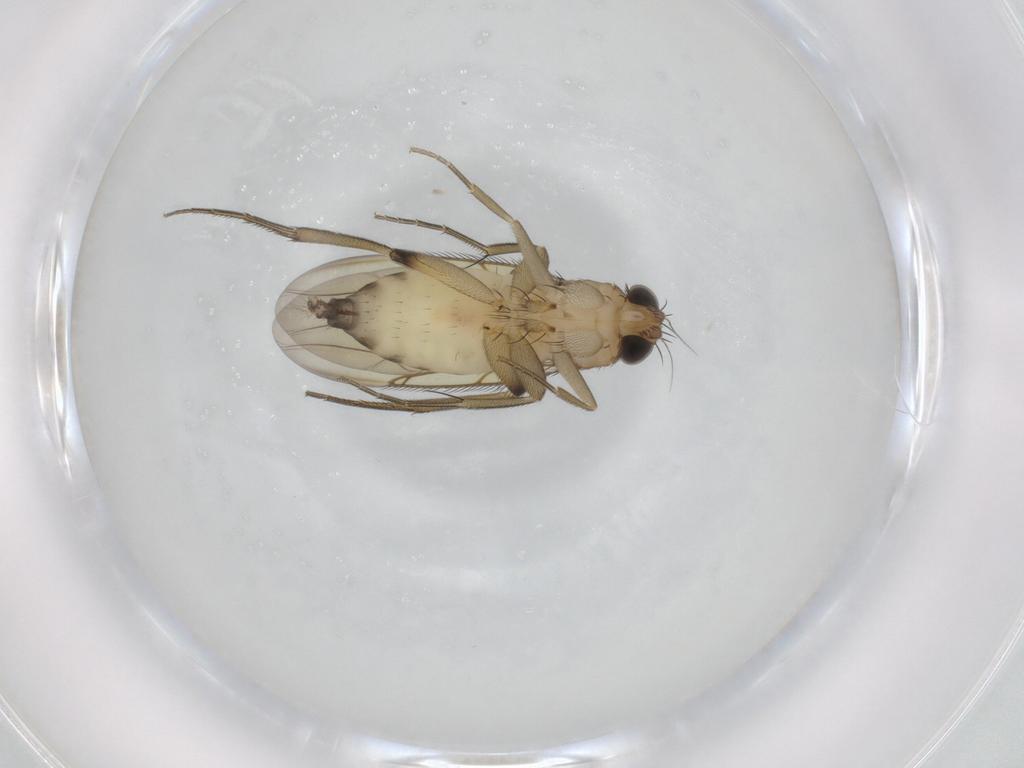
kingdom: Animalia
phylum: Arthropoda
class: Insecta
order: Diptera
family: Phoridae
